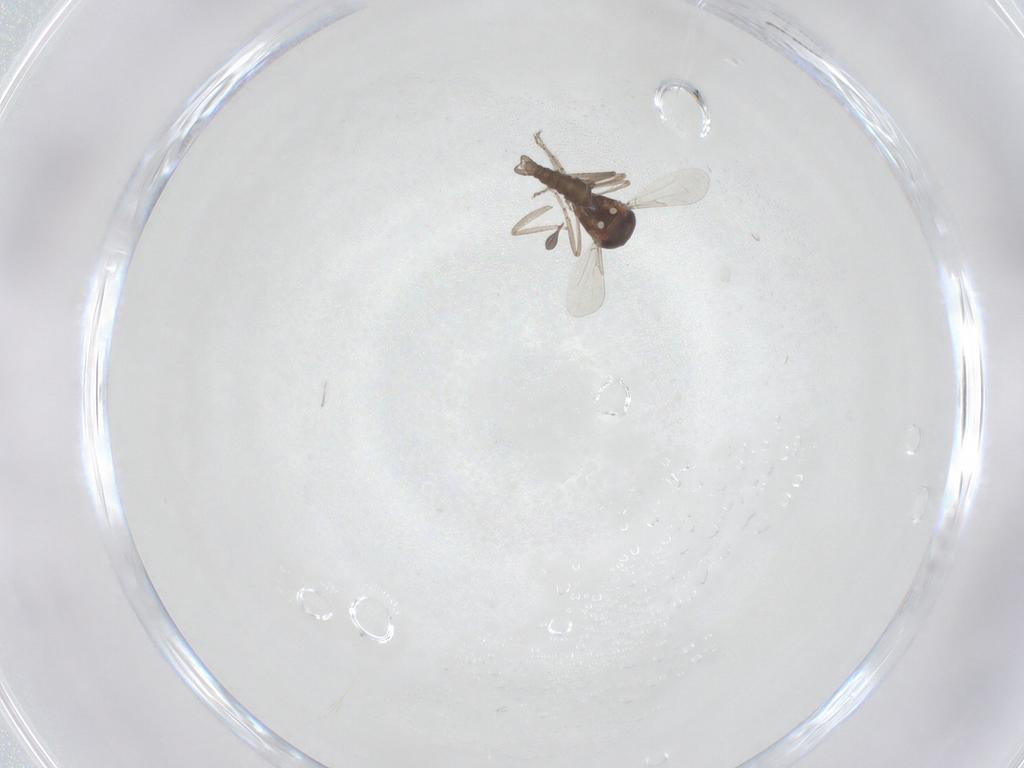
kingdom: Animalia
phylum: Arthropoda
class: Insecta
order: Diptera
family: Ceratopogonidae
